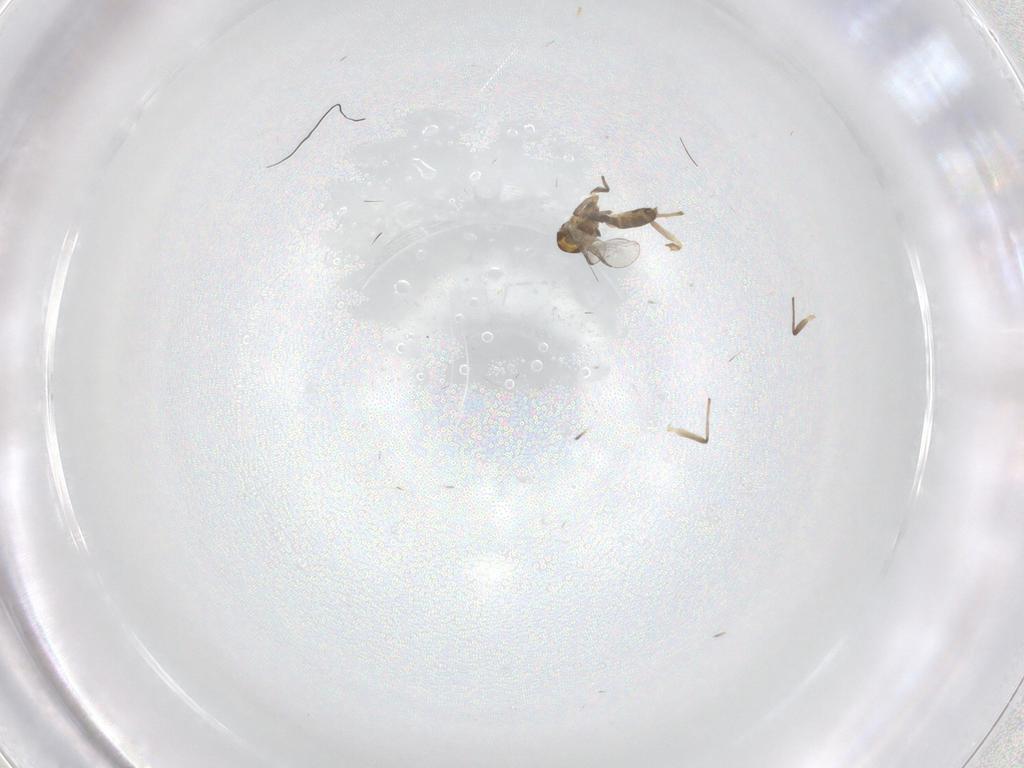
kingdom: Animalia
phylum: Arthropoda
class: Insecta
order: Diptera
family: Chironomidae
